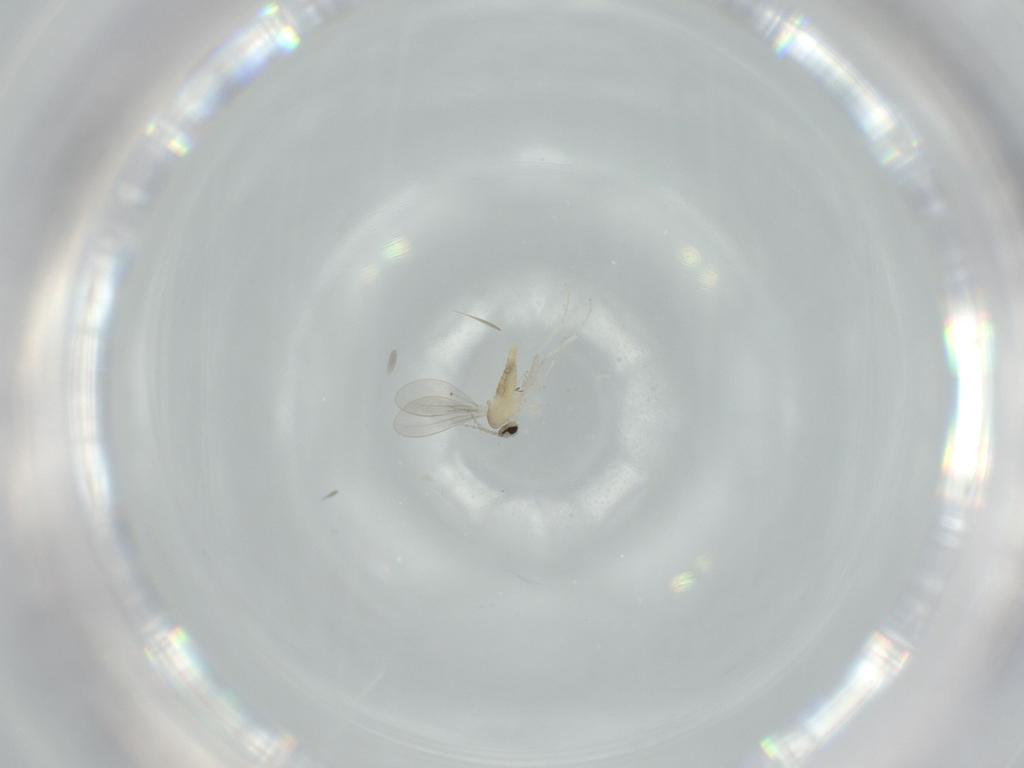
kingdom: Animalia
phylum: Arthropoda
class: Insecta
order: Diptera
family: Cecidomyiidae
